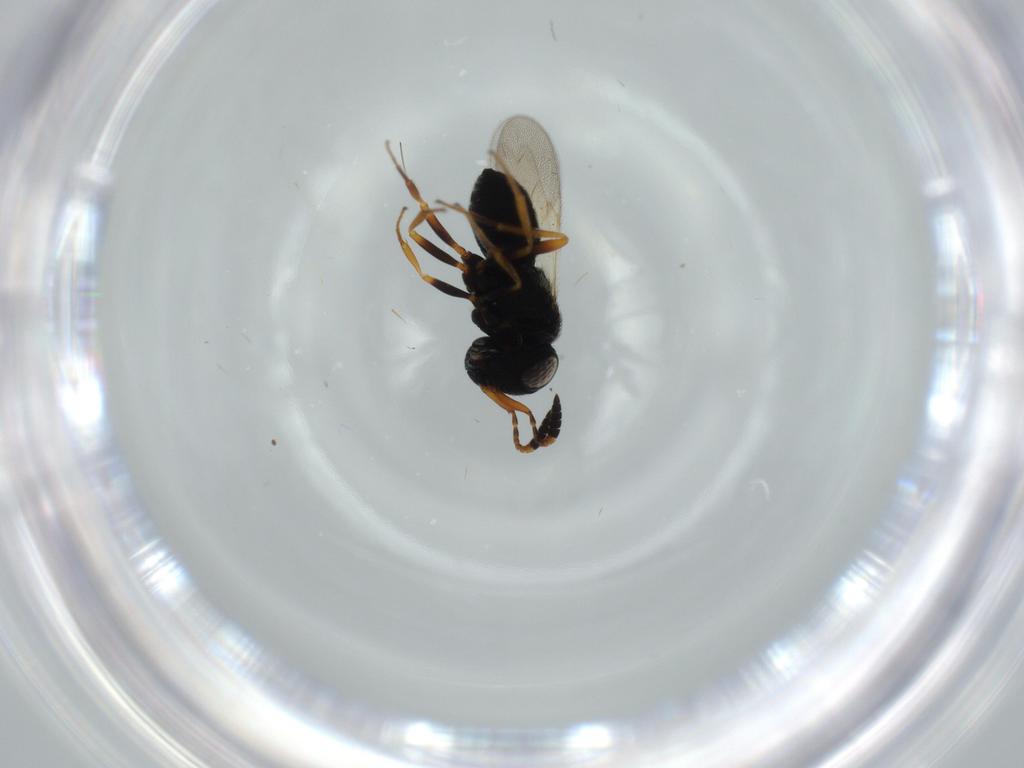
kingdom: Animalia
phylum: Arthropoda
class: Insecta
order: Hymenoptera
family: Scelionidae
